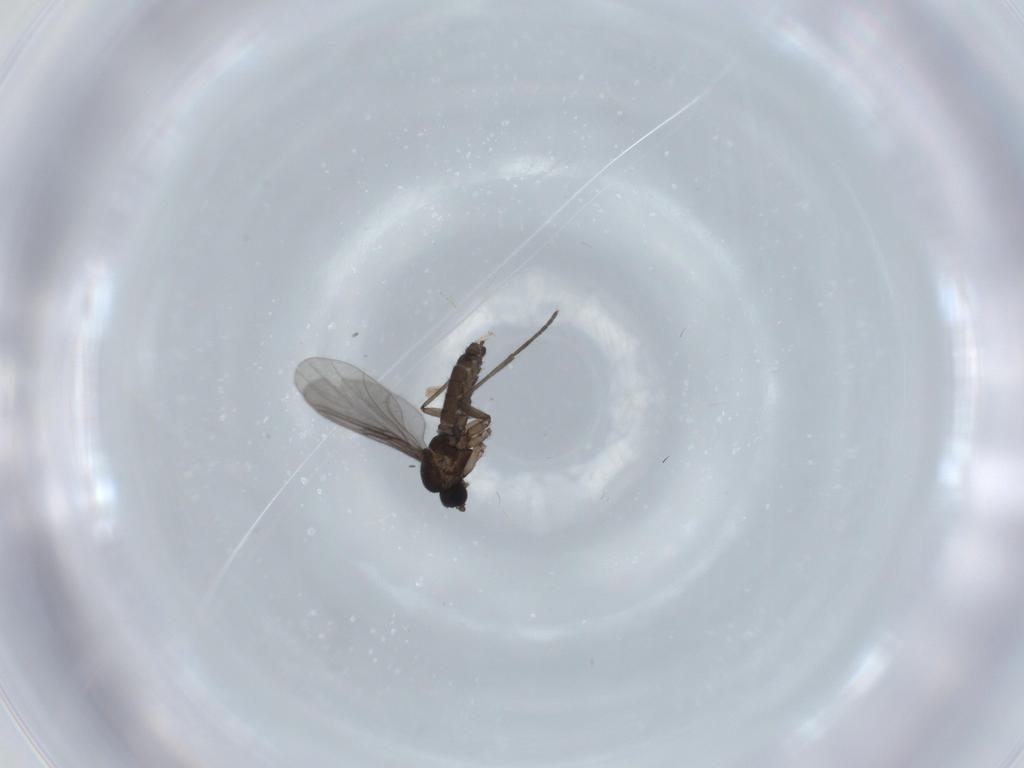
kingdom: Animalia
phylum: Arthropoda
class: Insecta
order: Diptera
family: Cecidomyiidae
